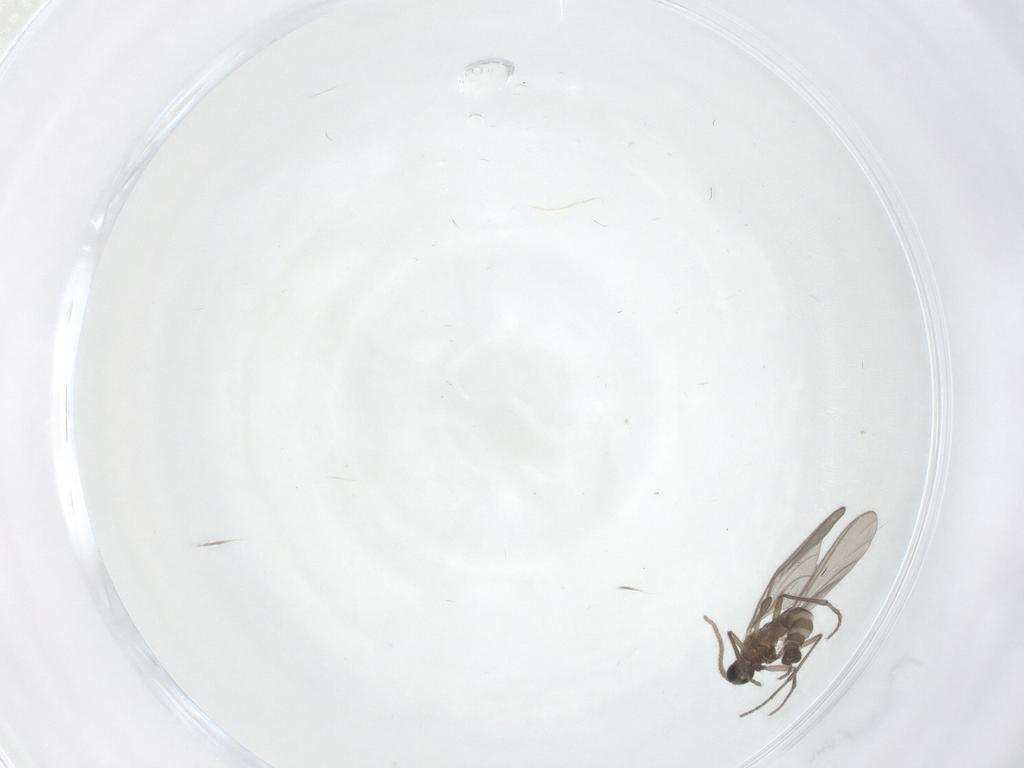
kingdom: Animalia
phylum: Arthropoda
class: Insecta
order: Diptera
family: Sciaridae
